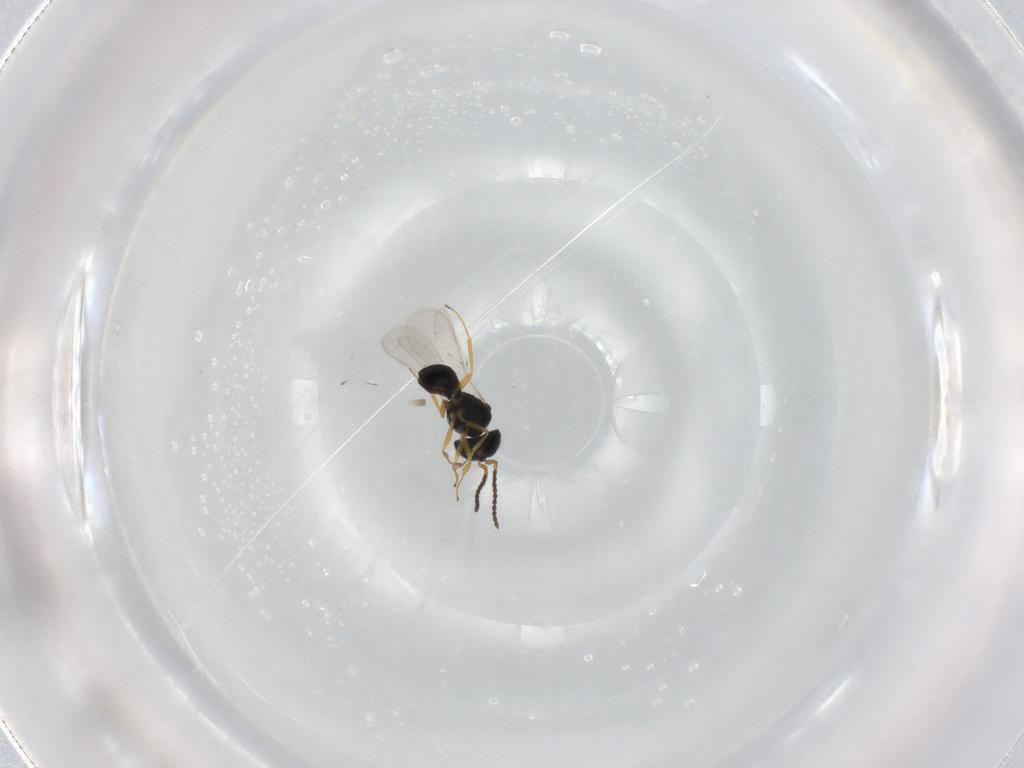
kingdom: Animalia
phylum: Arthropoda
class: Insecta
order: Hymenoptera
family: Scelionidae
